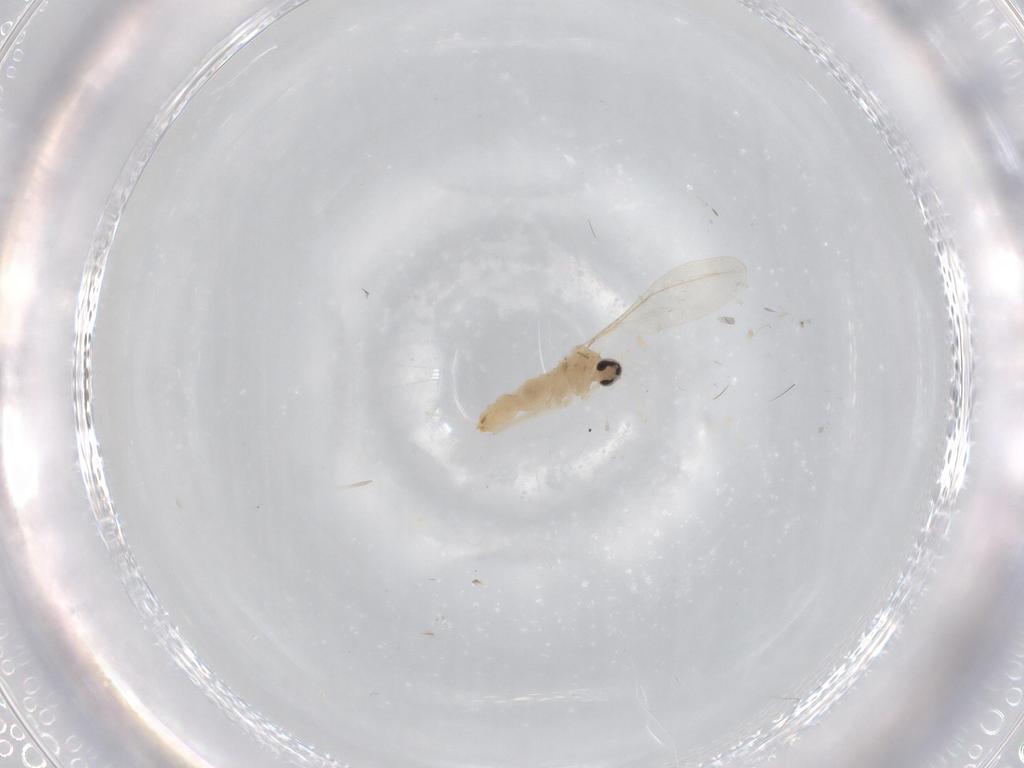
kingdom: Animalia
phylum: Arthropoda
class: Insecta
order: Diptera
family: Cecidomyiidae
